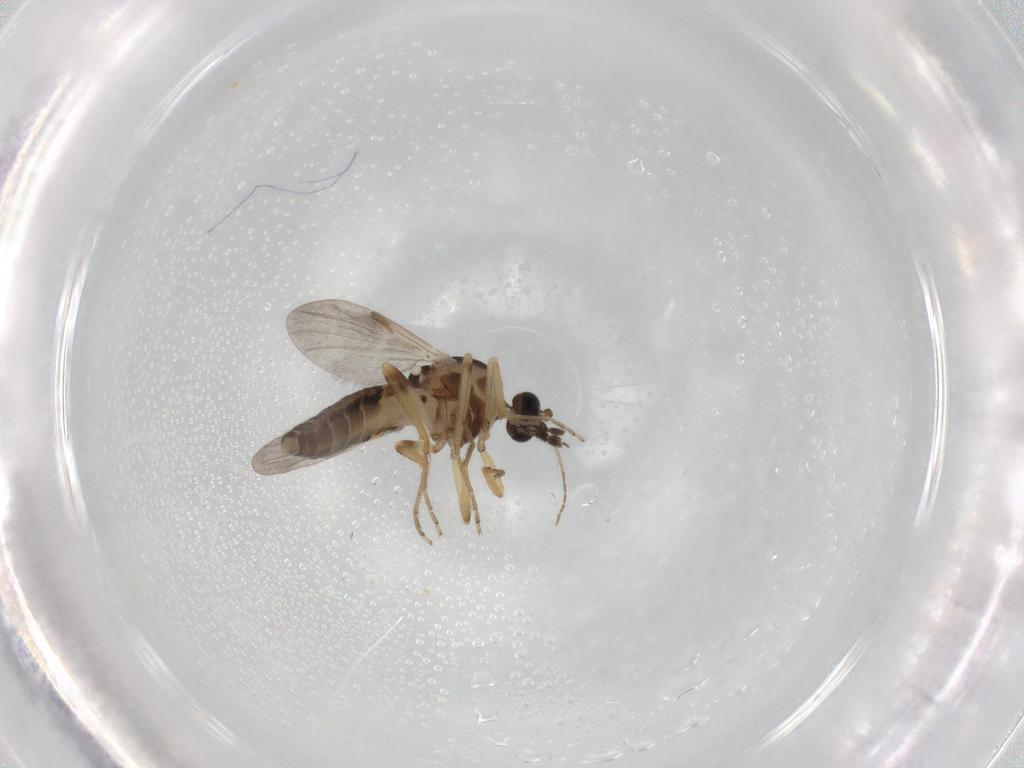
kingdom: Animalia
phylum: Arthropoda
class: Insecta
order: Diptera
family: Ceratopogonidae
